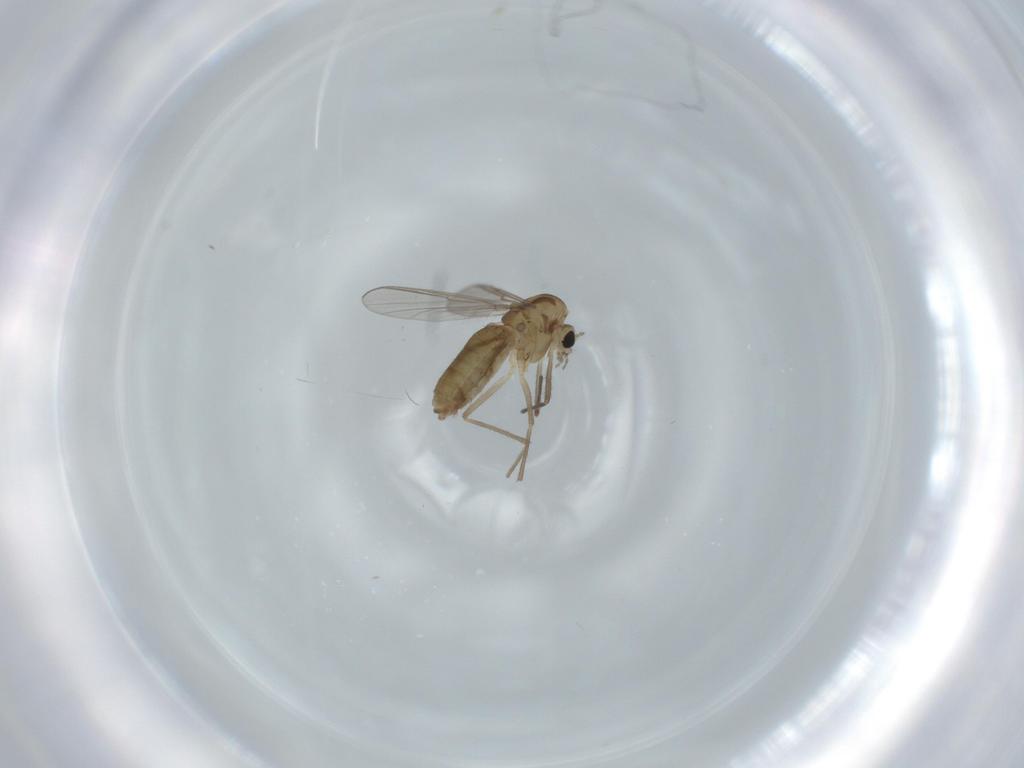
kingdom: Animalia
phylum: Arthropoda
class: Insecta
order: Diptera
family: Chironomidae
